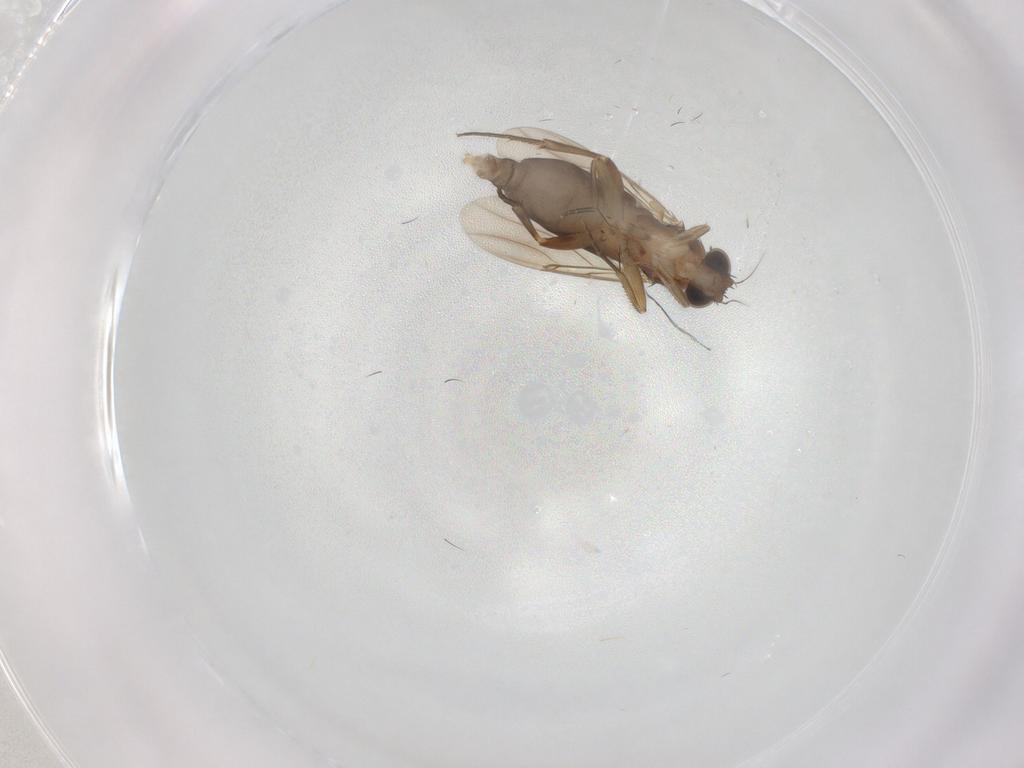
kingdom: Animalia
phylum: Arthropoda
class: Insecta
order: Diptera
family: Phoridae
